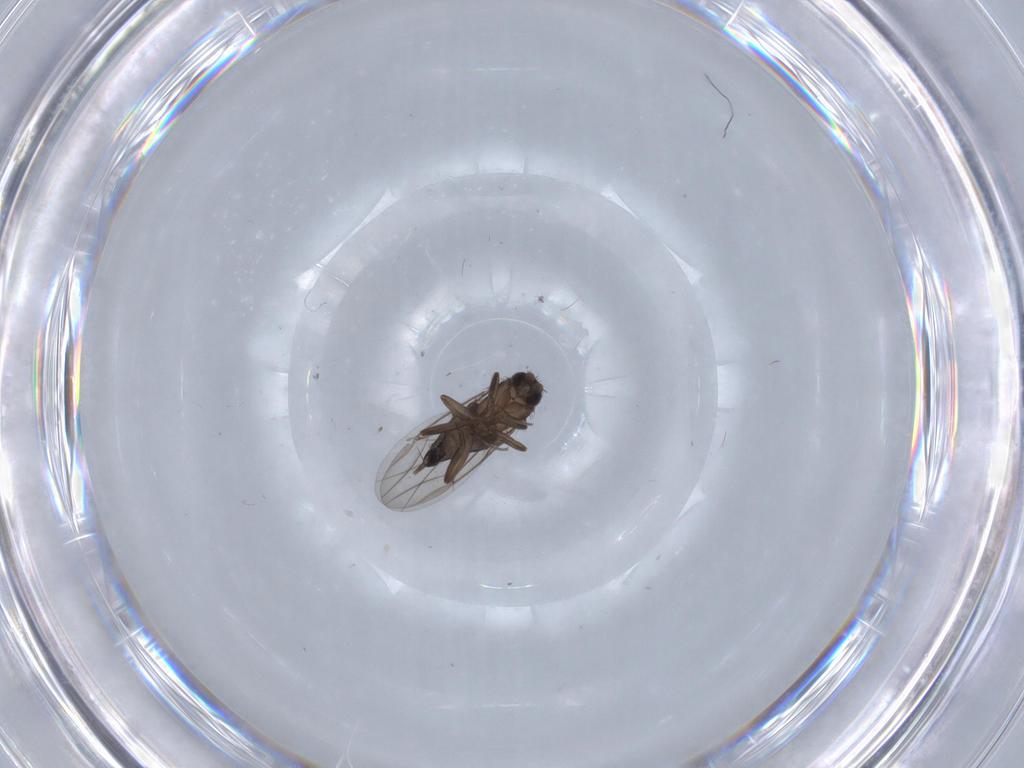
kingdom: Animalia
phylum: Arthropoda
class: Insecta
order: Diptera
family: Phoridae
